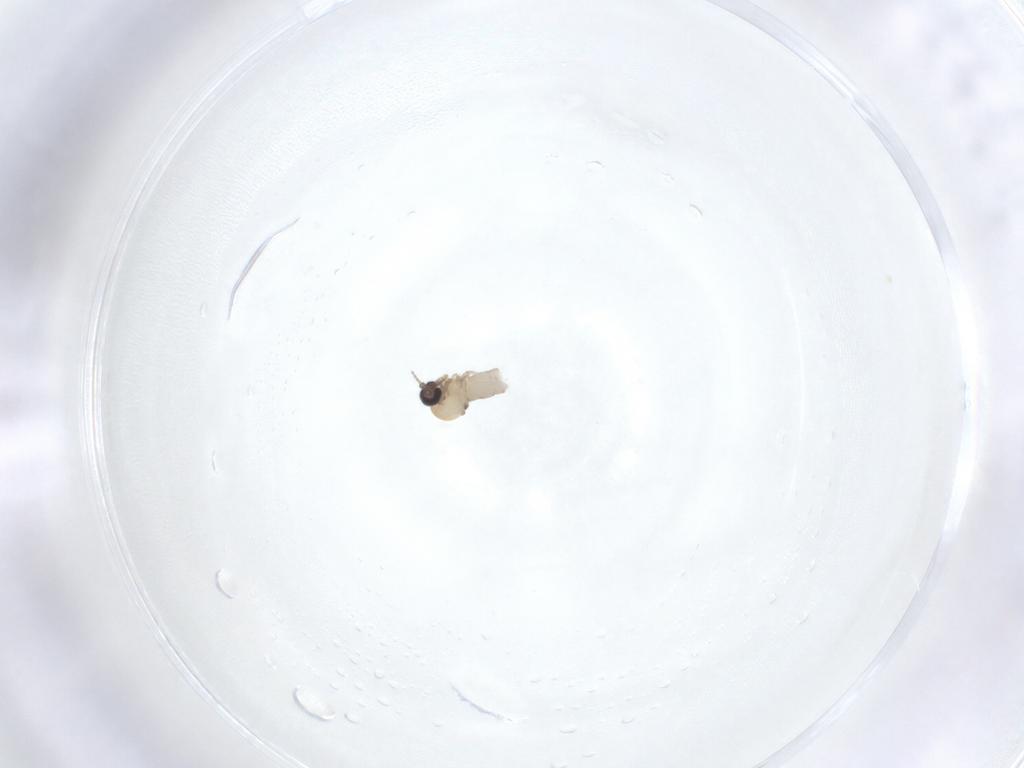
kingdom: Animalia
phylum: Arthropoda
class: Insecta
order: Diptera
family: Ceratopogonidae
